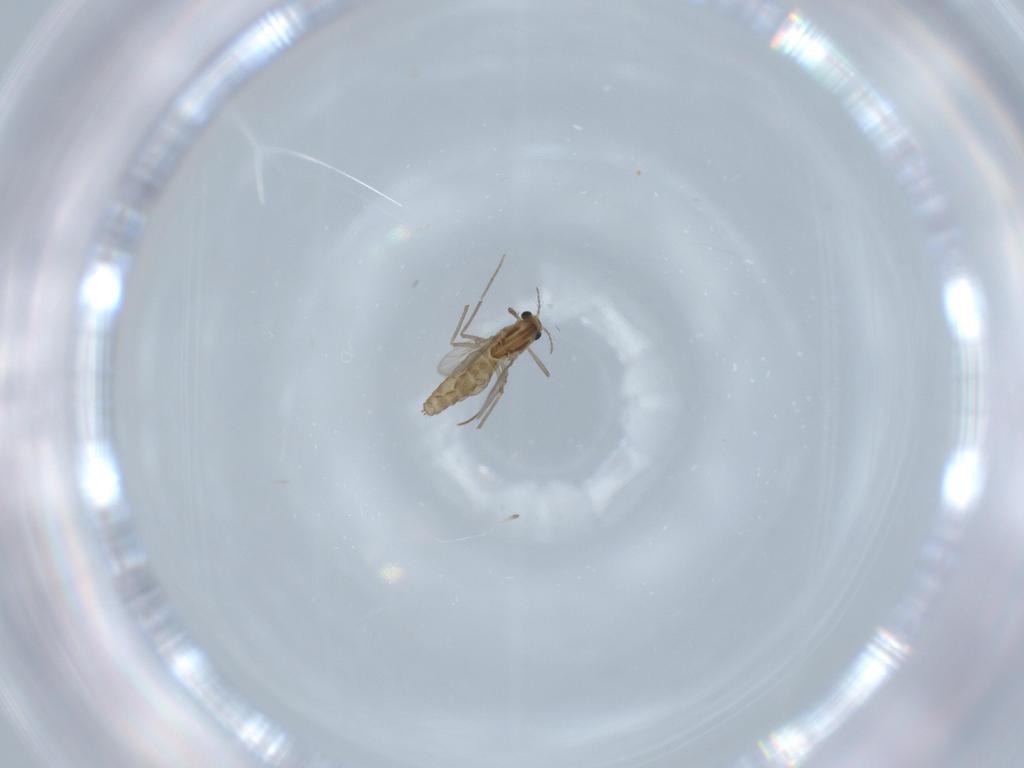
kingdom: Animalia
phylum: Arthropoda
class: Insecta
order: Diptera
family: Chironomidae
